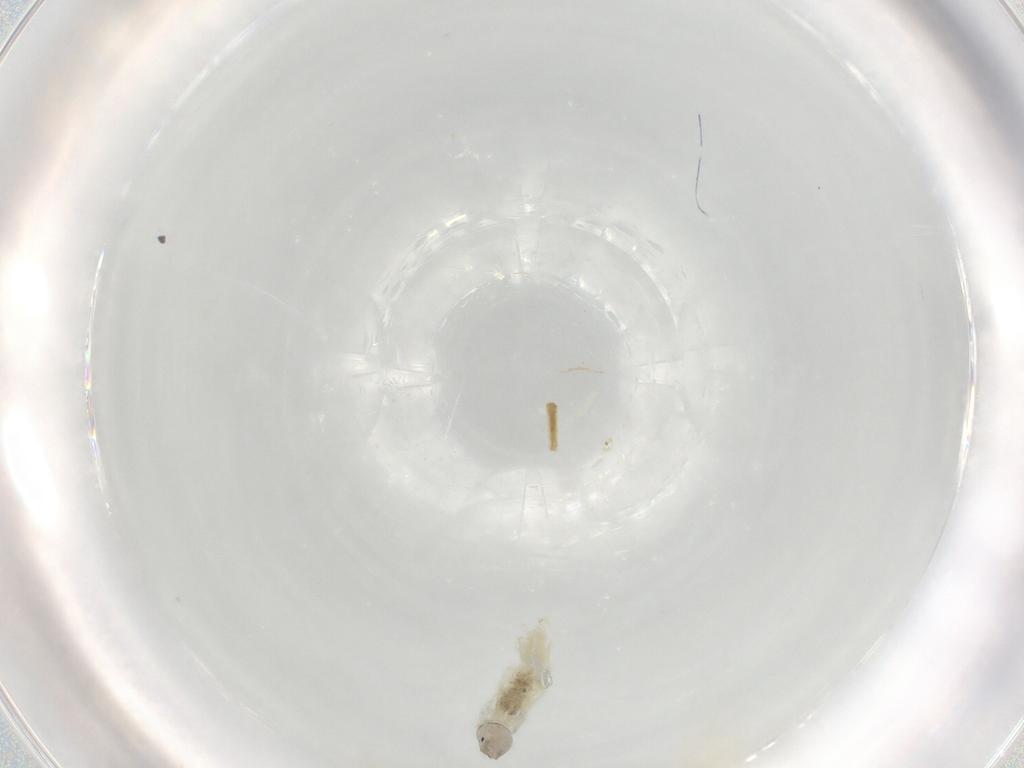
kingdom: Animalia
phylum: Arthropoda
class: Insecta
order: Diptera
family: Chironomidae
